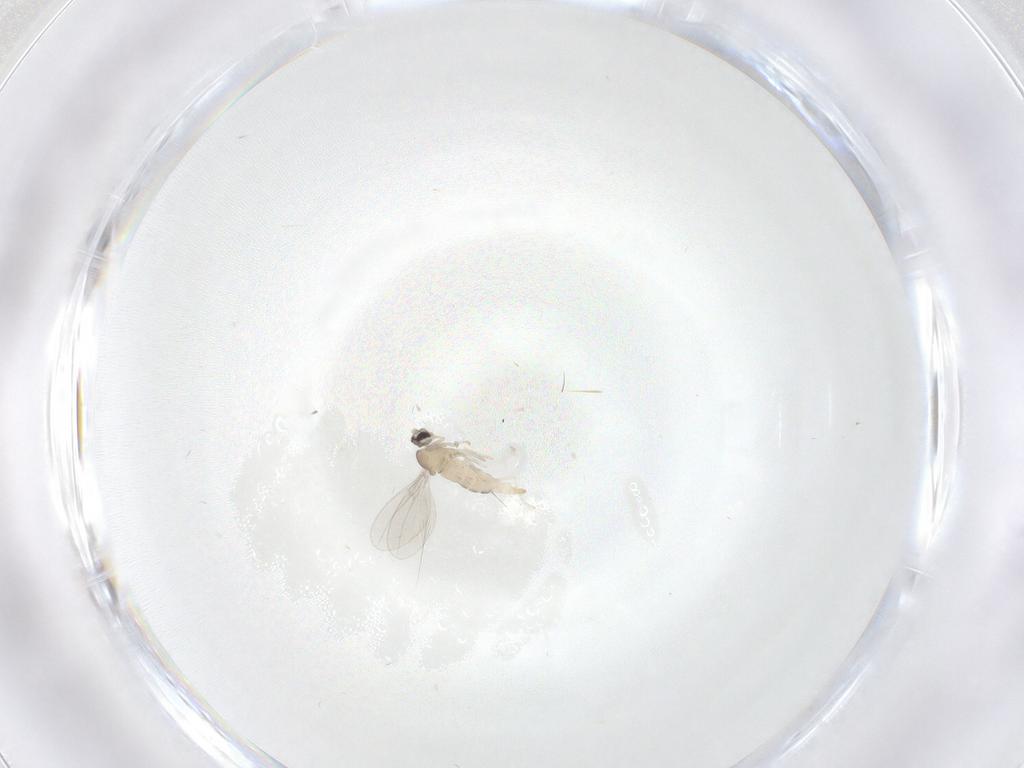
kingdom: Animalia
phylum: Arthropoda
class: Insecta
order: Diptera
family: Cecidomyiidae
